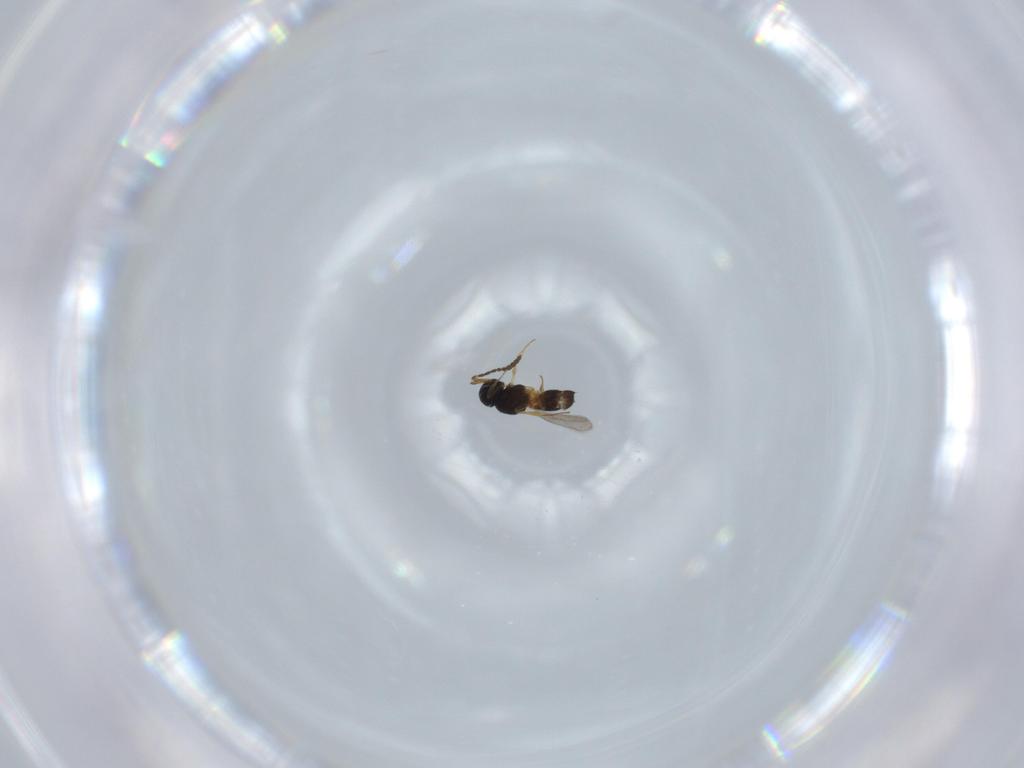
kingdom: Animalia
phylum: Arthropoda
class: Insecta
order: Hymenoptera
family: Scelionidae
